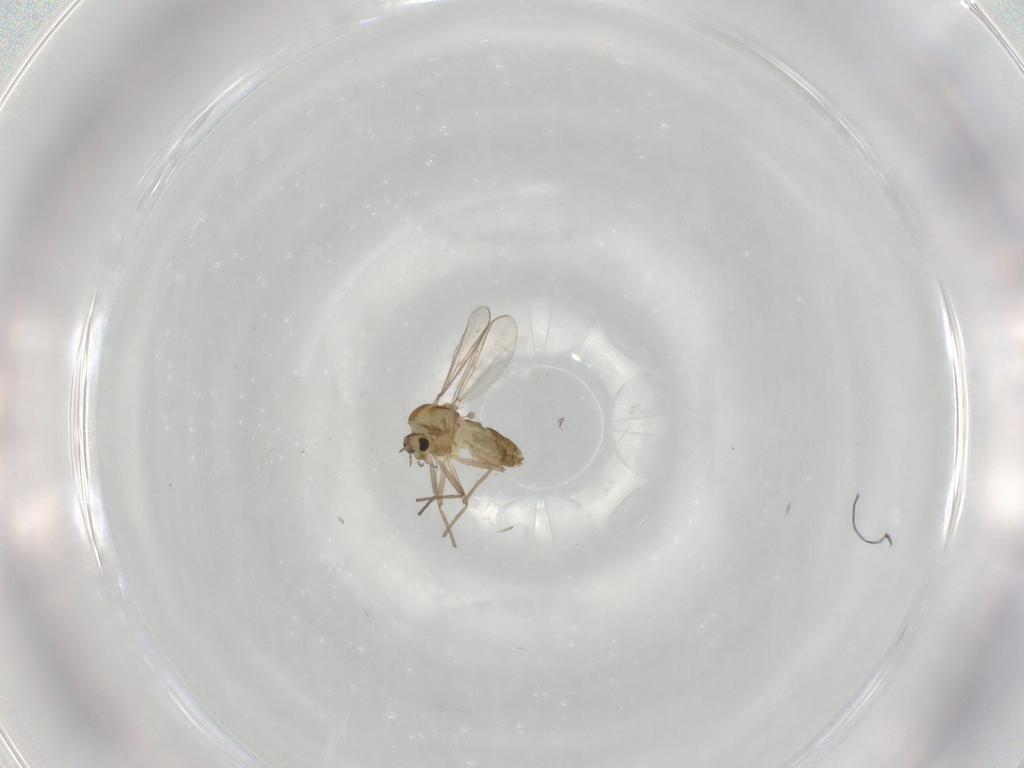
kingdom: Animalia
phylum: Arthropoda
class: Insecta
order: Diptera
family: Chironomidae
